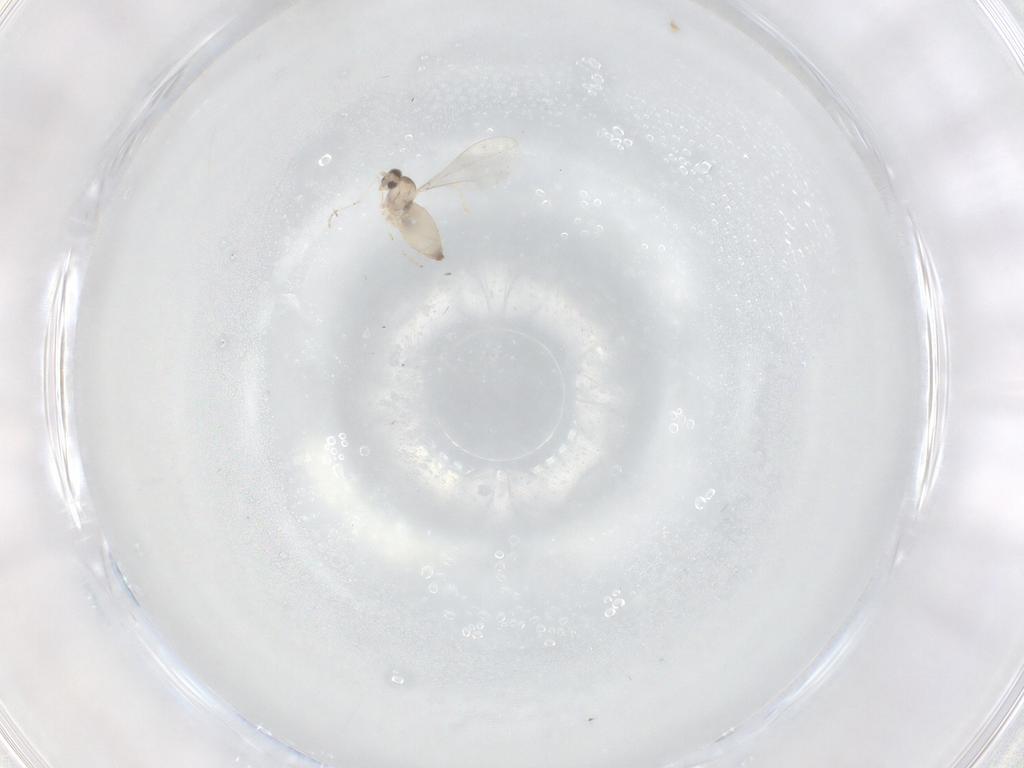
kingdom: Animalia
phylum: Arthropoda
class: Insecta
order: Diptera
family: Cecidomyiidae
